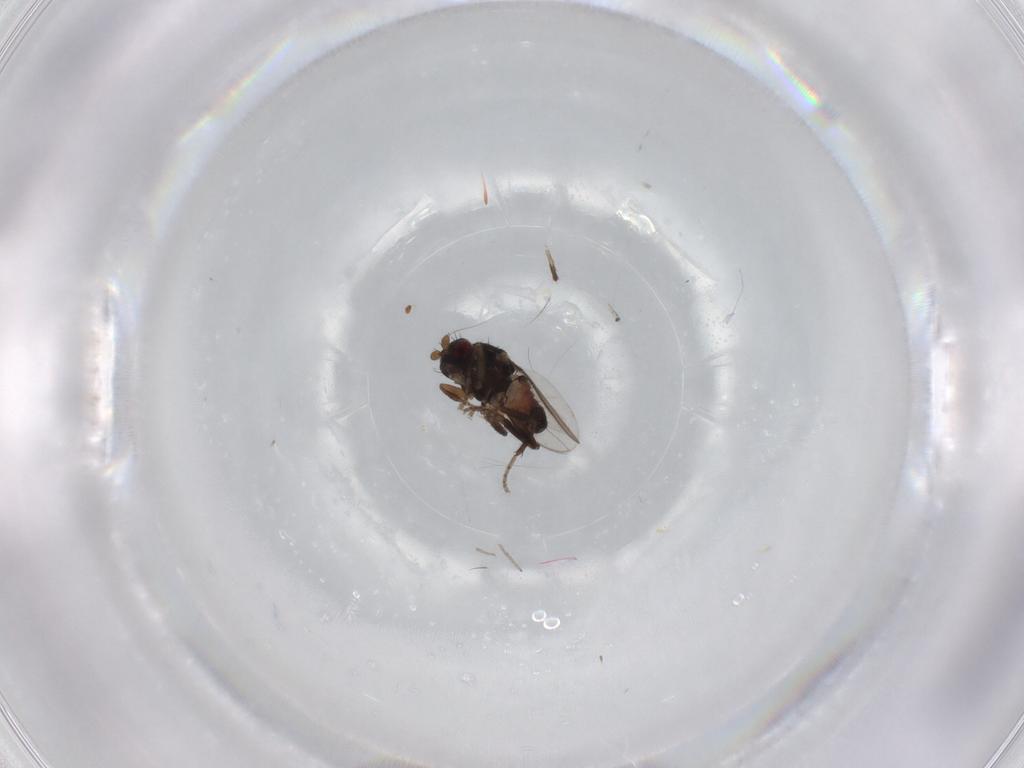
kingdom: Animalia
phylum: Arthropoda
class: Insecta
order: Diptera
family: Sphaeroceridae
